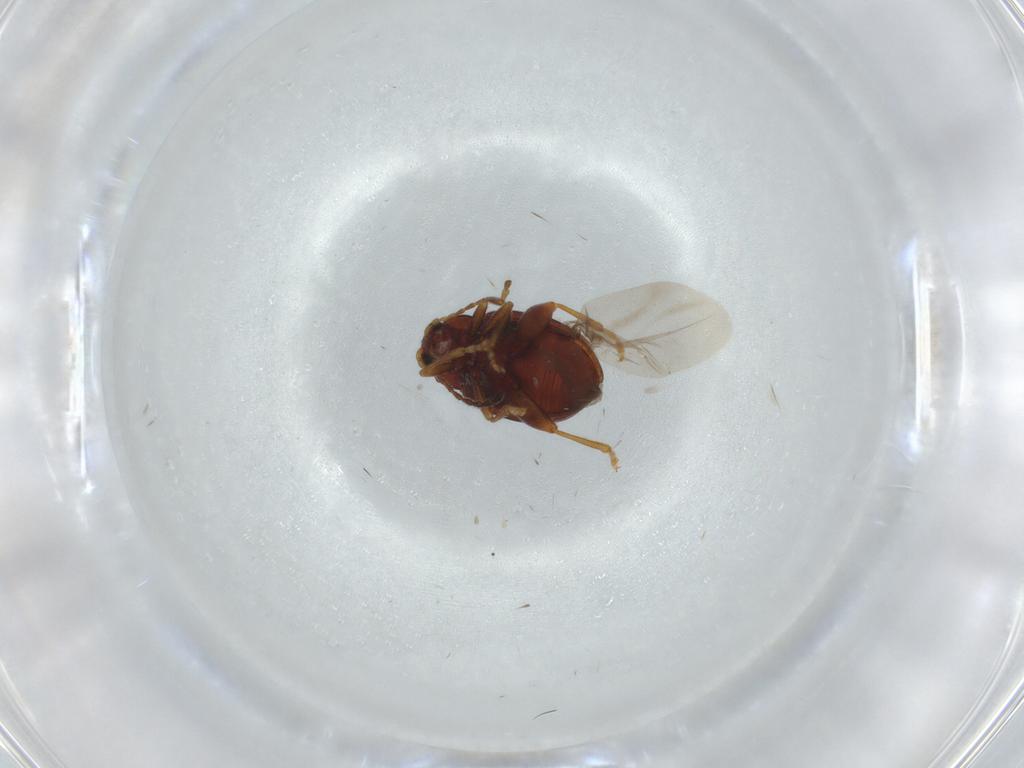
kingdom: Animalia
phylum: Arthropoda
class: Insecta
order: Coleoptera
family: Chrysomelidae
